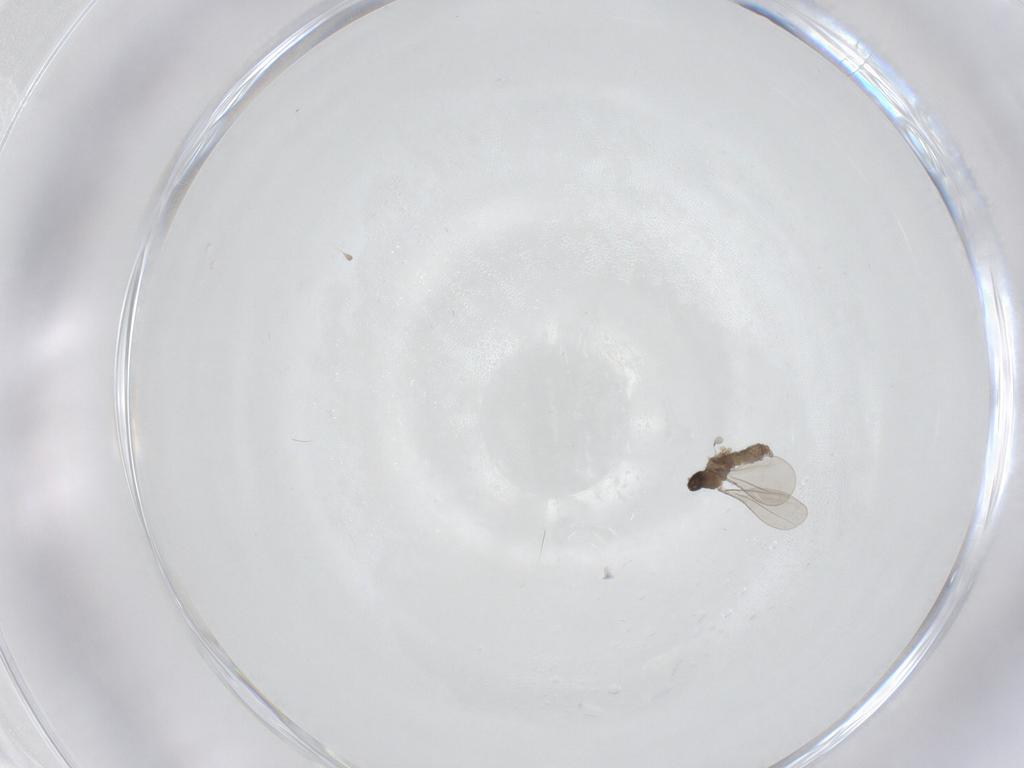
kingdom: Animalia
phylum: Arthropoda
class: Insecta
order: Diptera
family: Cecidomyiidae
